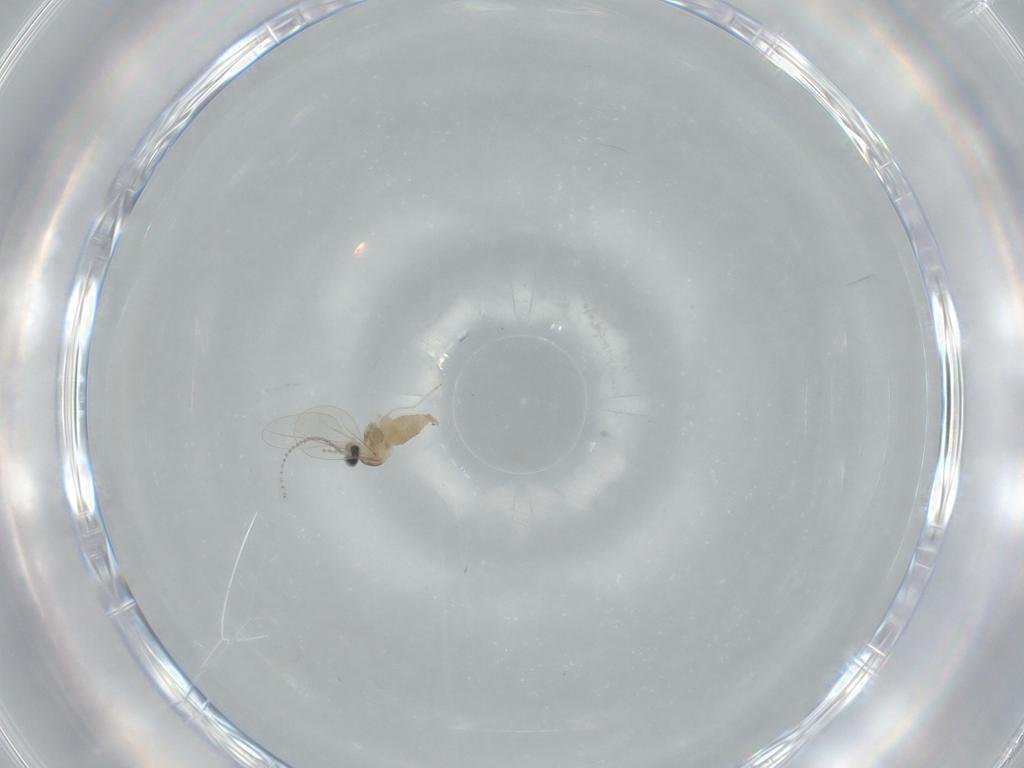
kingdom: Animalia
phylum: Arthropoda
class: Insecta
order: Diptera
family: Cecidomyiidae
